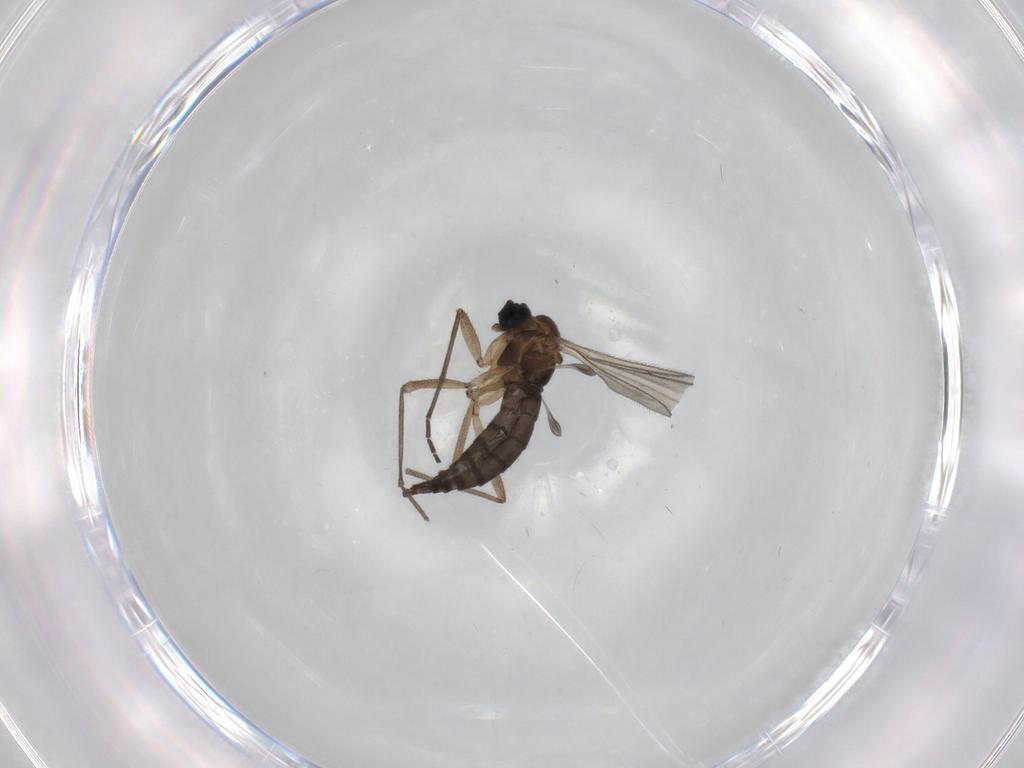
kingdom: Animalia
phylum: Arthropoda
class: Insecta
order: Diptera
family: Sciaridae
